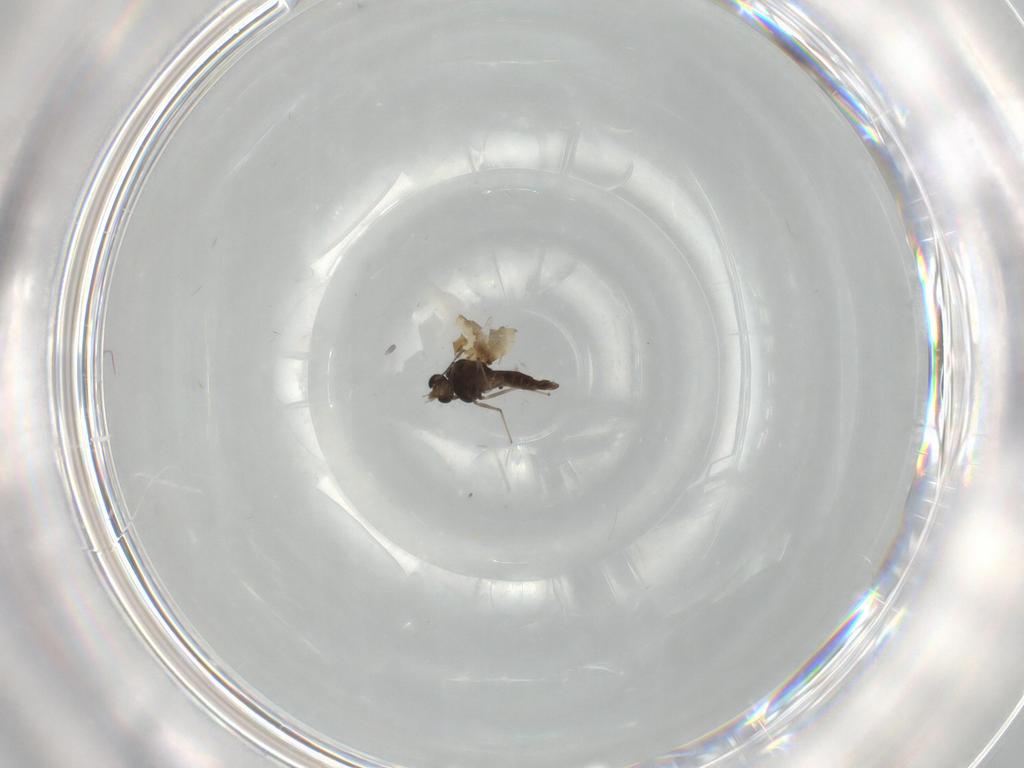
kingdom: Animalia
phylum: Arthropoda
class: Insecta
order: Diptera
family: Chironomidae
